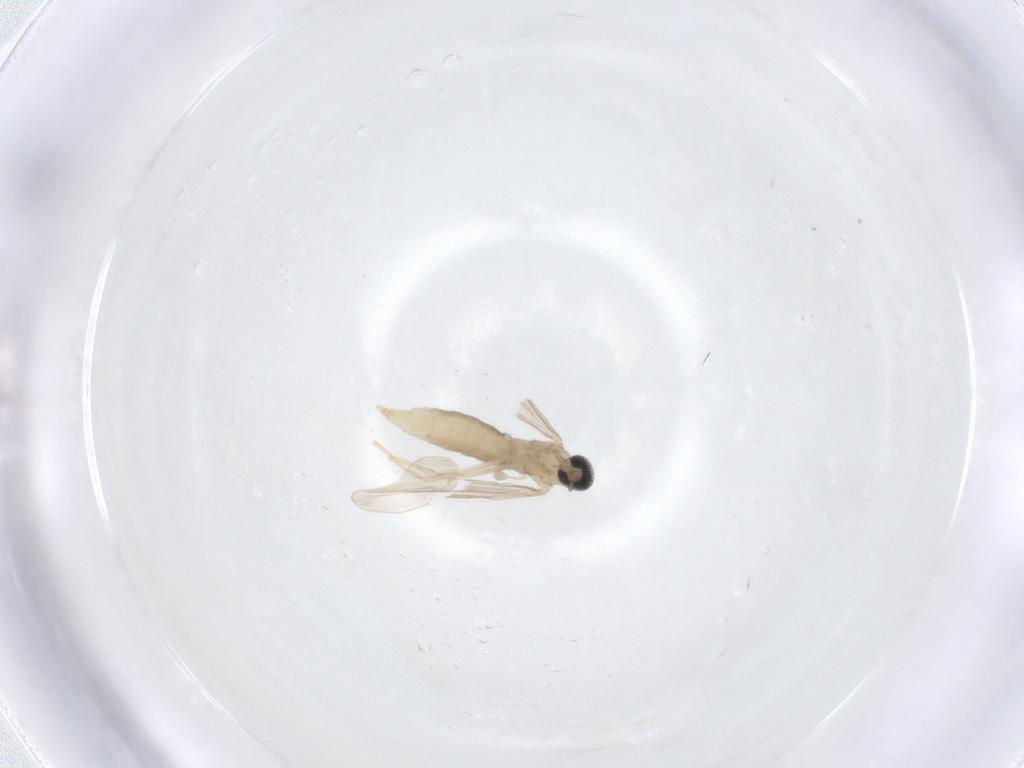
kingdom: Animalia
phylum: Arthropoda
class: Insecta
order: Diptera
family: Cecidomyiidae
